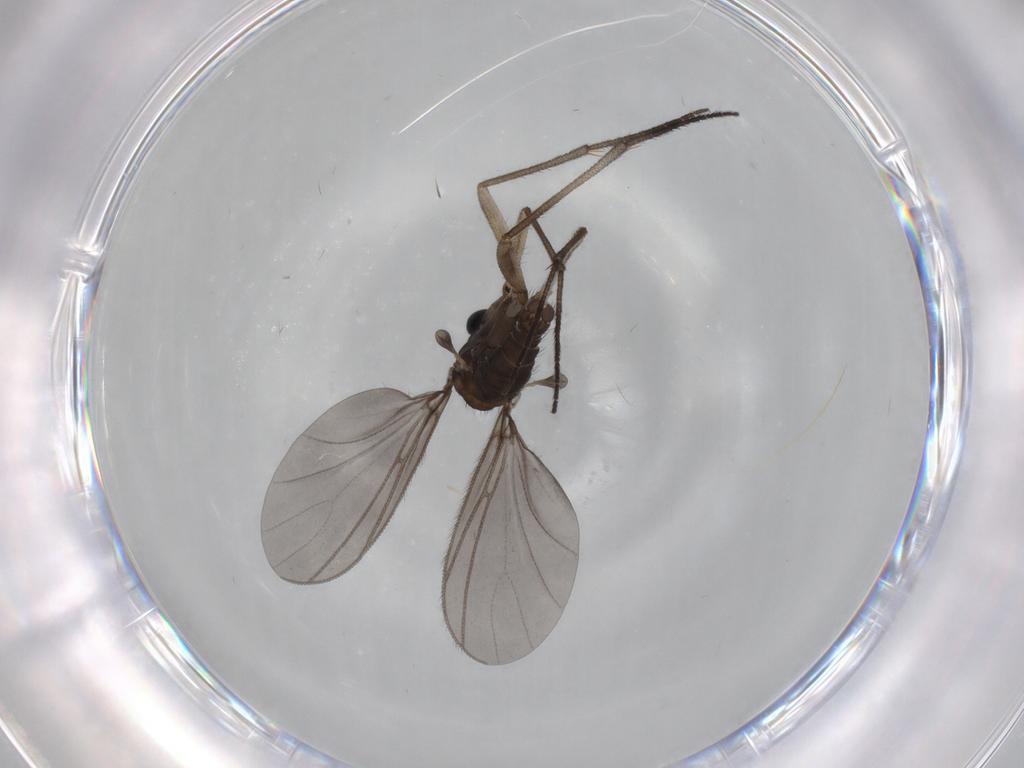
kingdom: Animalia
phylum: Arthropoda
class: Insecta
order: Diptera
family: Sciaridae
